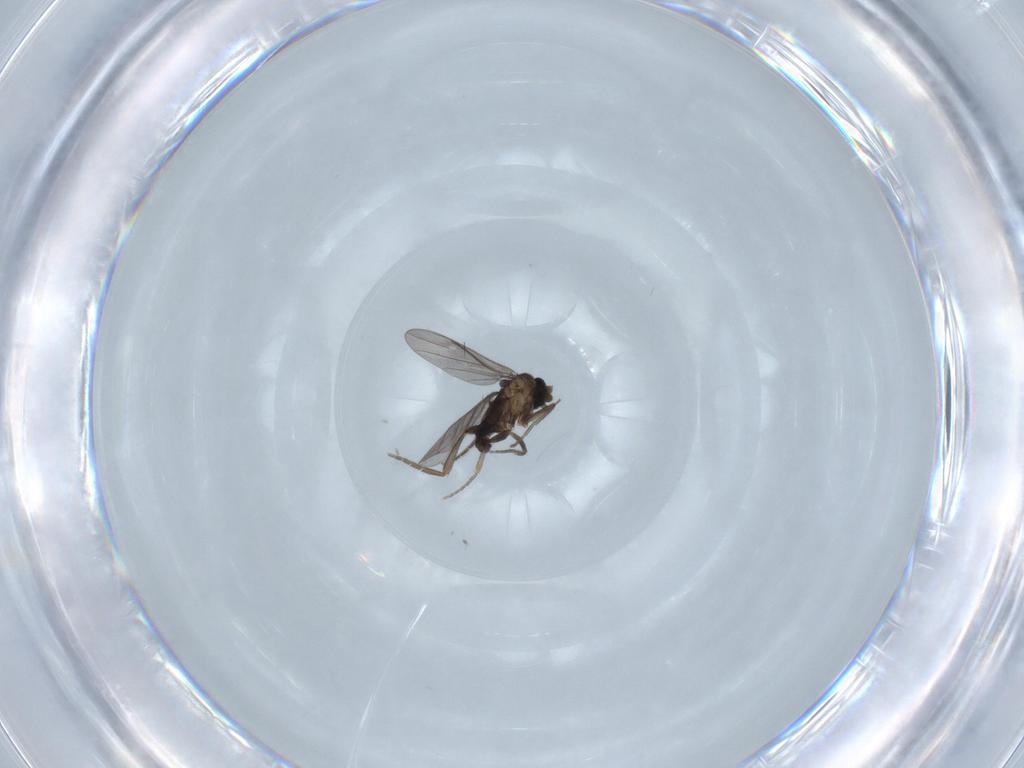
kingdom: Animalia
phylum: Arthropoda
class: Insecta
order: Diptera
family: Phoridae
